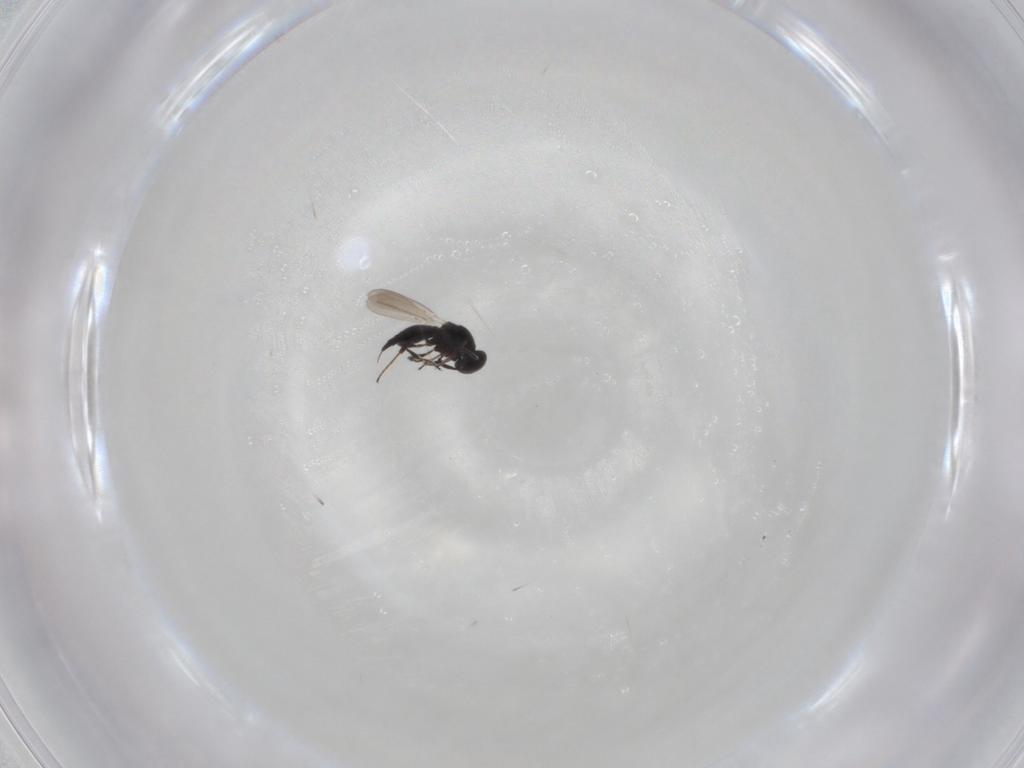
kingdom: Animalia
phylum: Arthropoda
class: Insecta
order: Hymenoptera
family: Platygastridae
